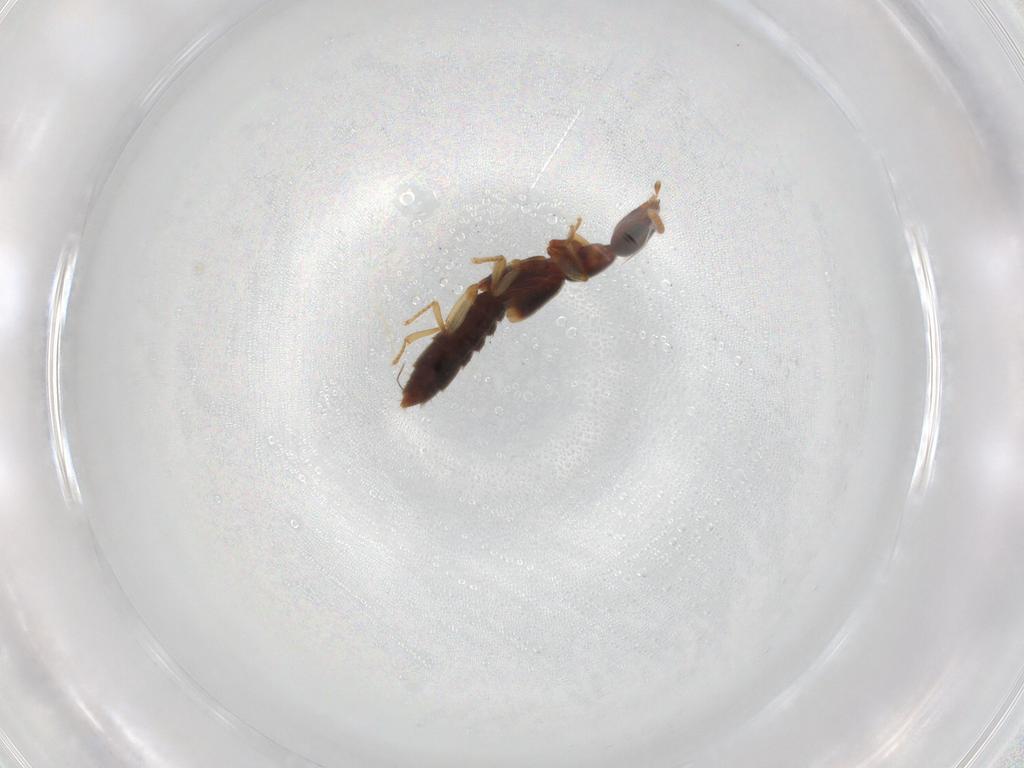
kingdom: Animalia
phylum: Arthropoda
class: Insecta
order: Coleoptera
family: Staphylinidae
